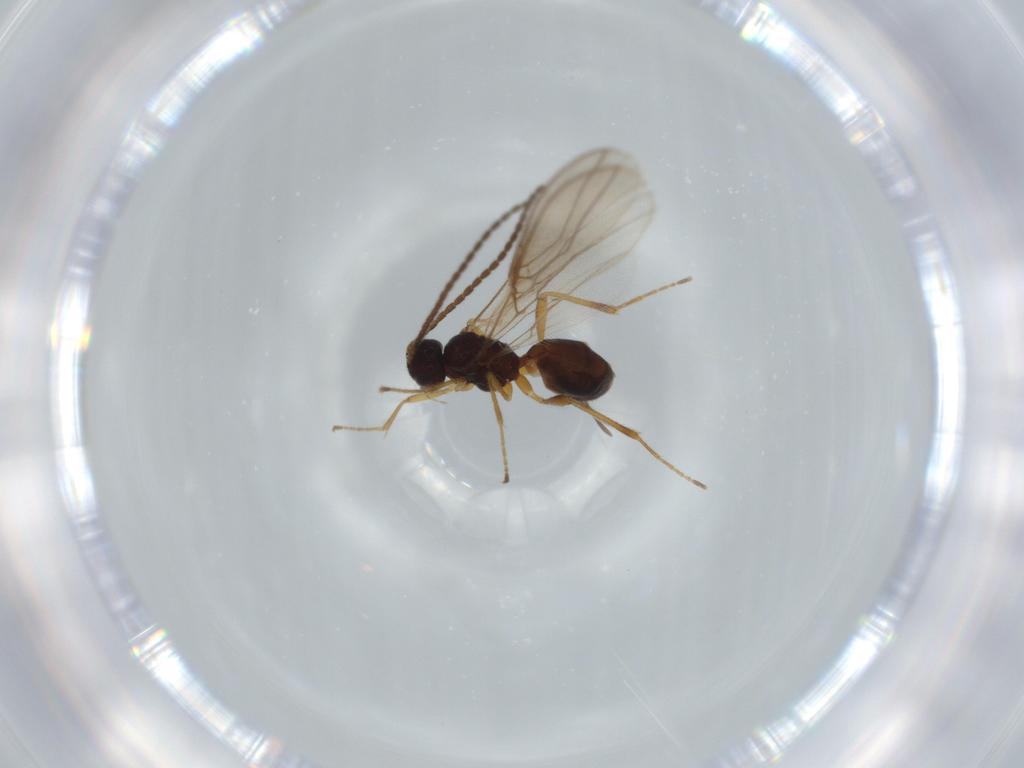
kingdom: Animalia
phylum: Arthropoda
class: Insecta
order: Hymenoptera
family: Braconidae
